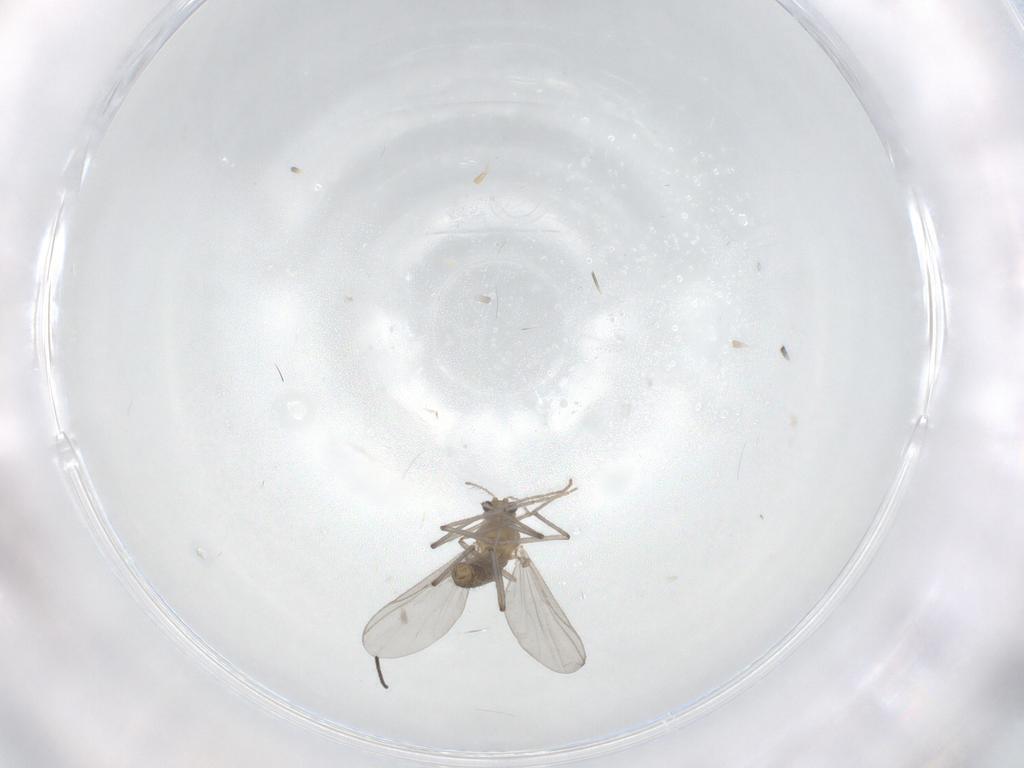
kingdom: Animalia
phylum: Arthropoda
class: Insecta
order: Diptera
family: Chironomidae
